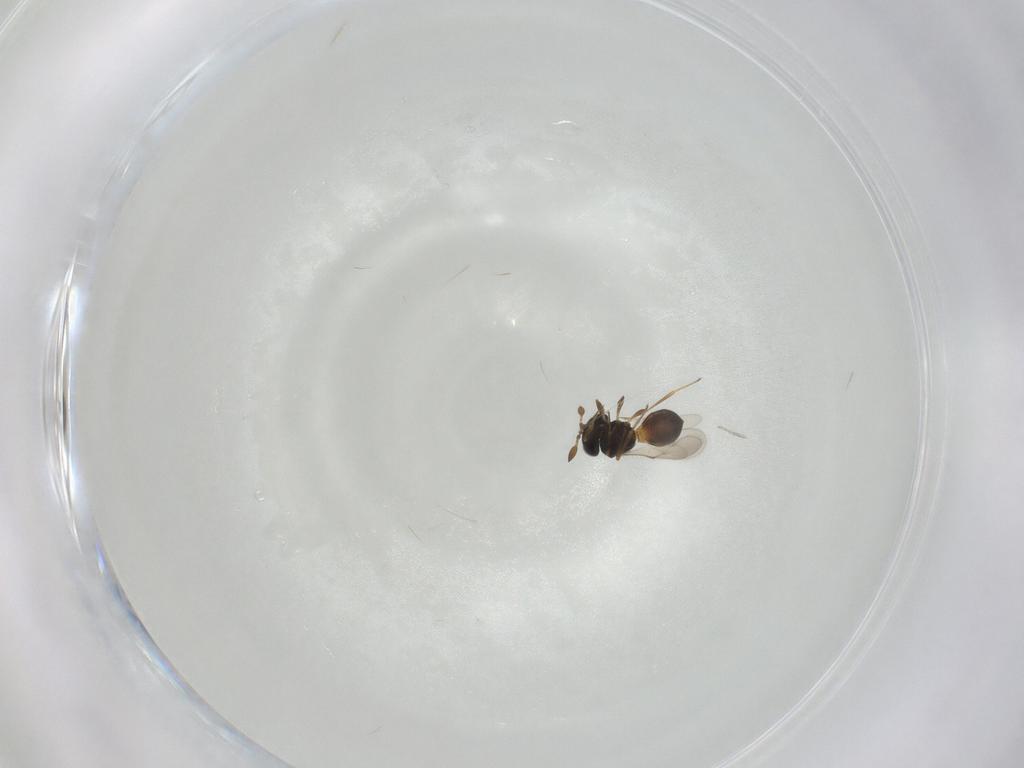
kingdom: Animalia
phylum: Arthropoda
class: Insecta
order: Hymenoptera
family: Scelionidae
